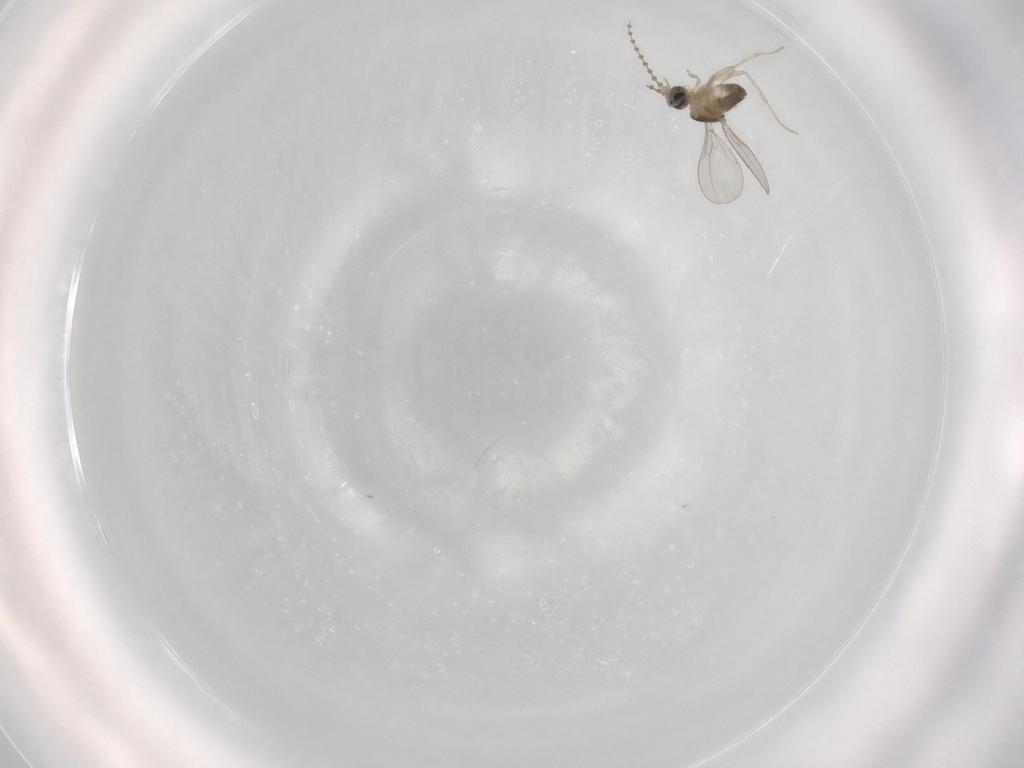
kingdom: Animalia
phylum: Arthropoda
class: Insecta
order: Diptera
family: Cecidomyiidae
